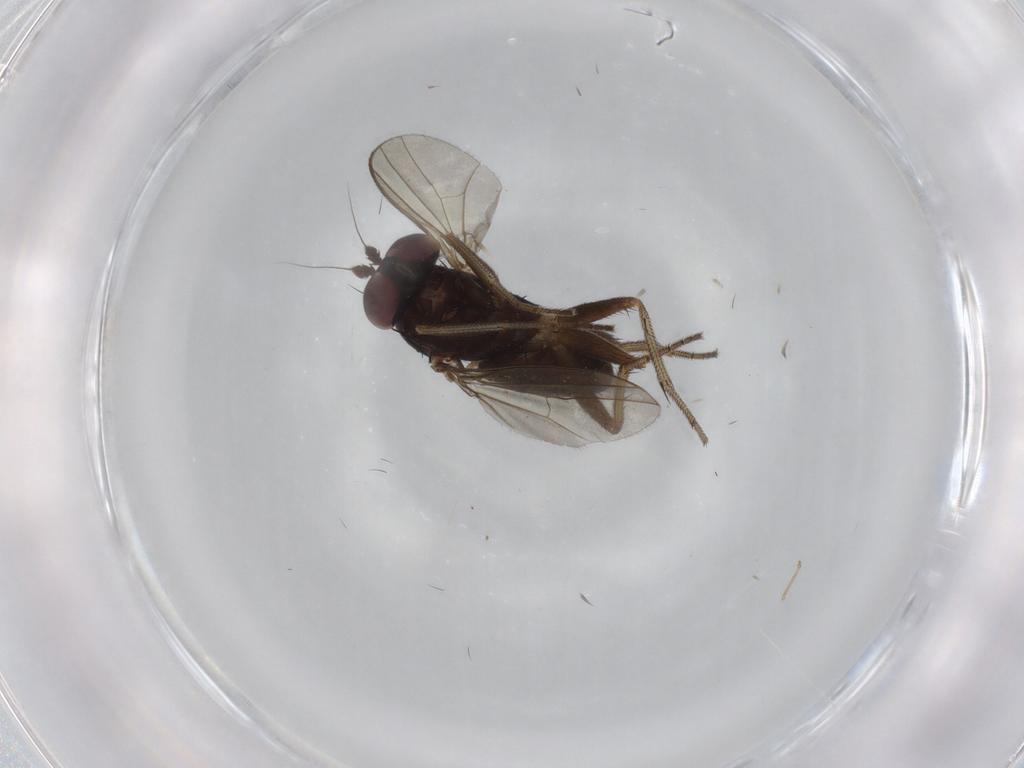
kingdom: Animalia
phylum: Arthropoda
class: Insecta
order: Diptera
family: Dolichopodidae
